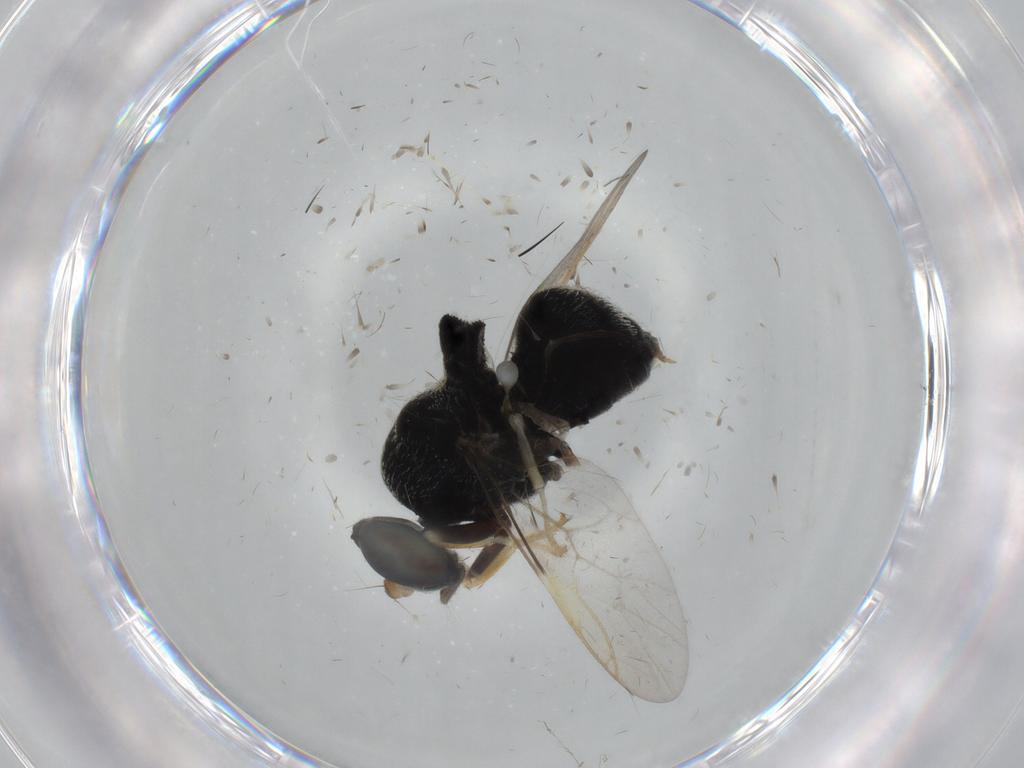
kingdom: Animalia
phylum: Arthropoda
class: Insecta
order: Diptera
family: Stratiomyidae
